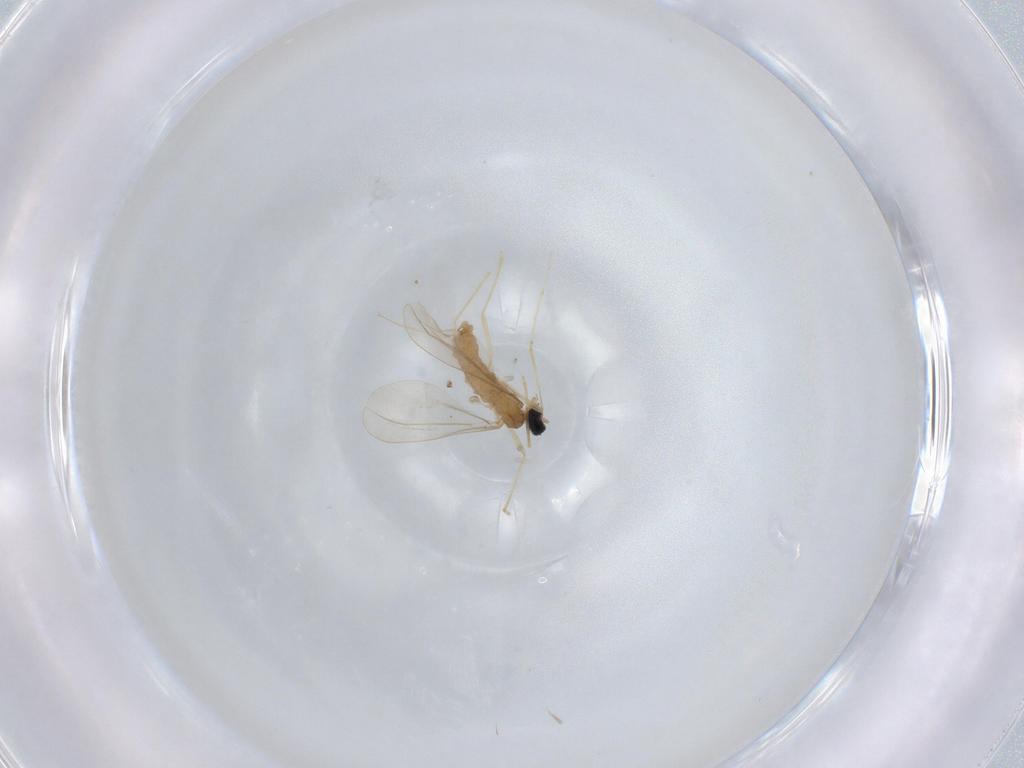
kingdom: Animalia
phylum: Arthropoda
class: Insecta
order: Diptera
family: Cecidomyiidae
